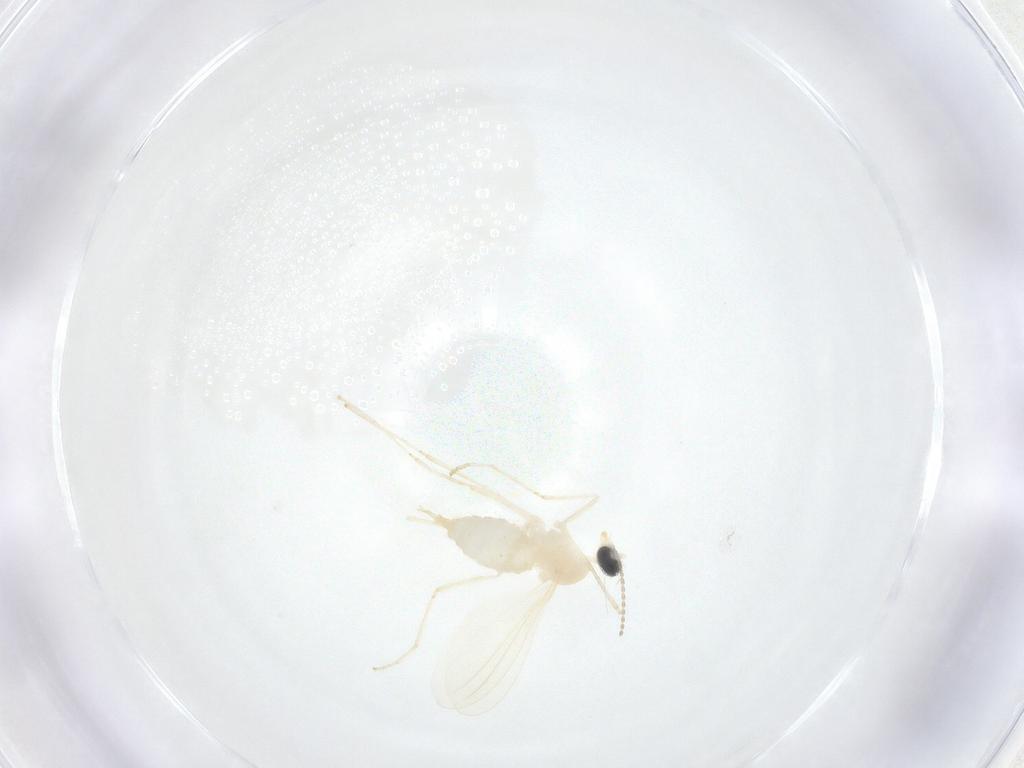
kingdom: Animalia
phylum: Arthropoda
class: Insecta
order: Diptera
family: Cecidomyiidae
